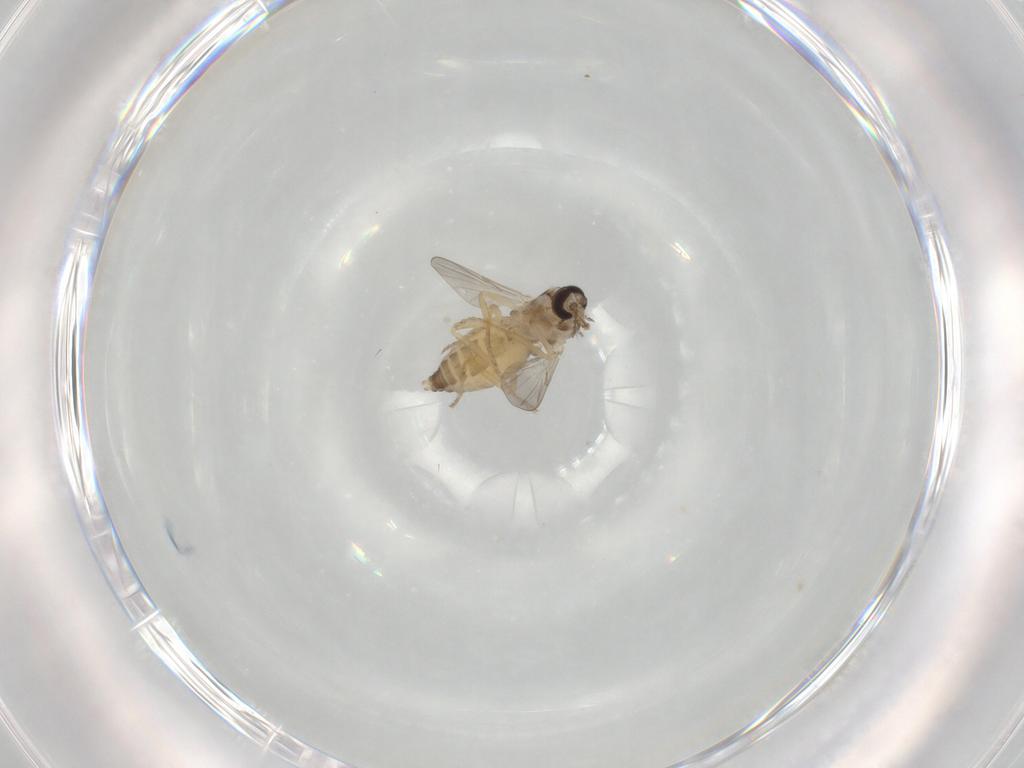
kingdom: Animalia
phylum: Arthropoda
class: Insecta
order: Diptera
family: Ceratopogonidae
